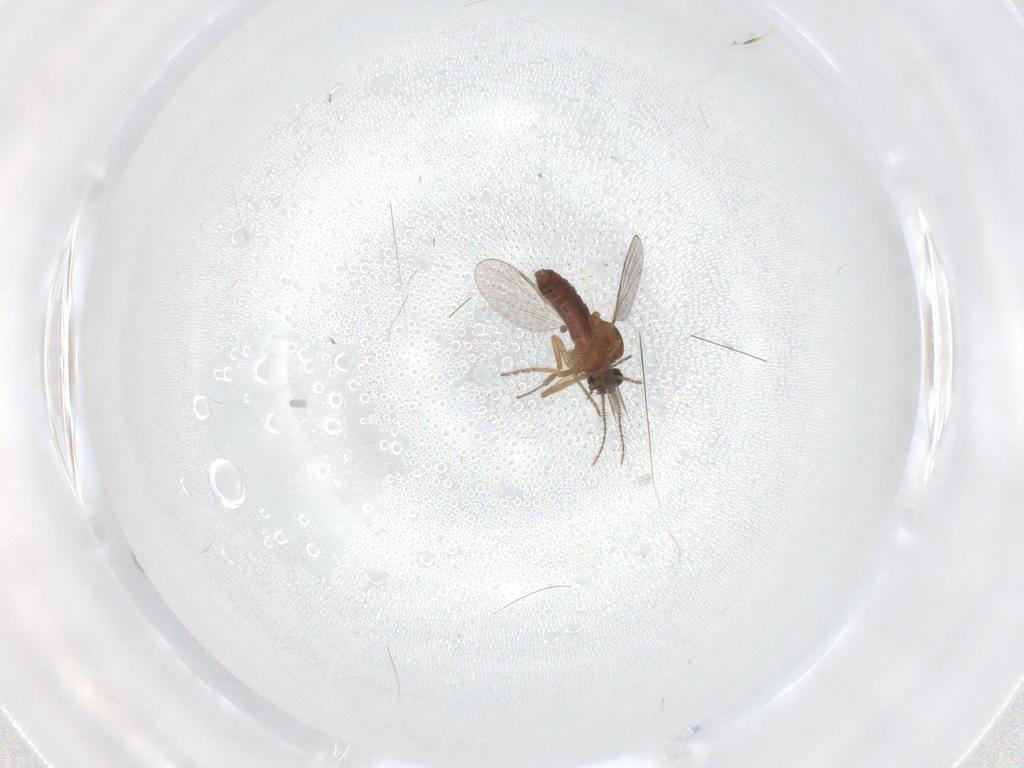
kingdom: Animalia
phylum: Arthropoda
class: Insecta
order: Diptera
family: Ceratopogonidae
